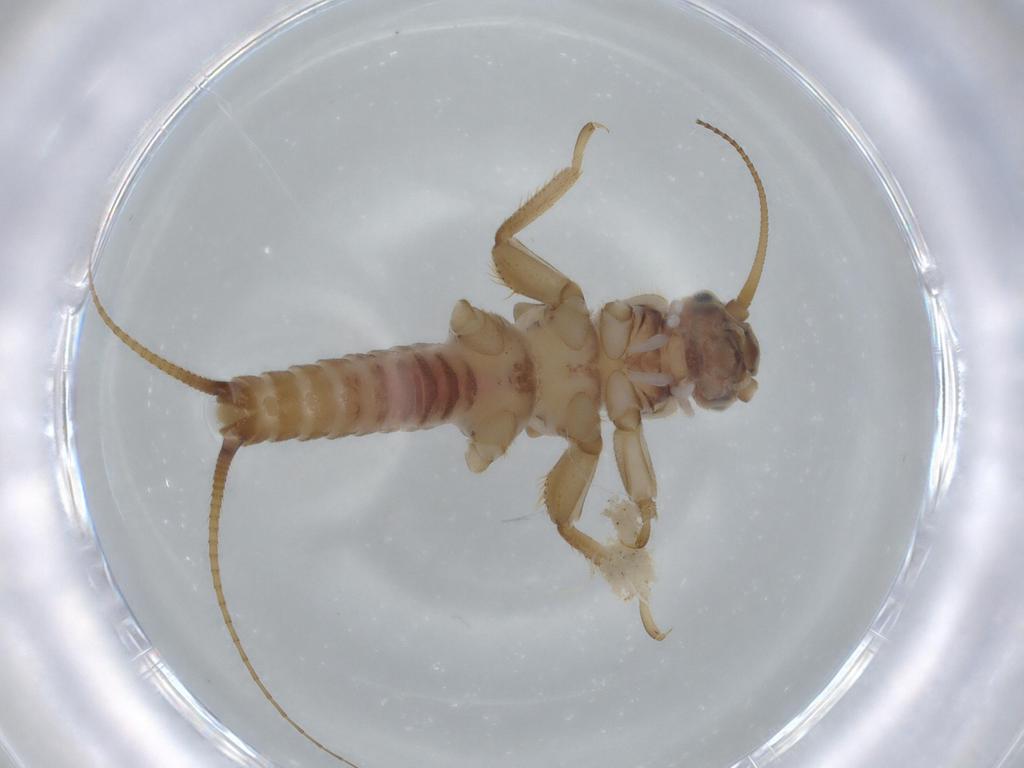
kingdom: Animalia
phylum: Arthropoda
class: Insecta
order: Plecoptera
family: Nemouridae
